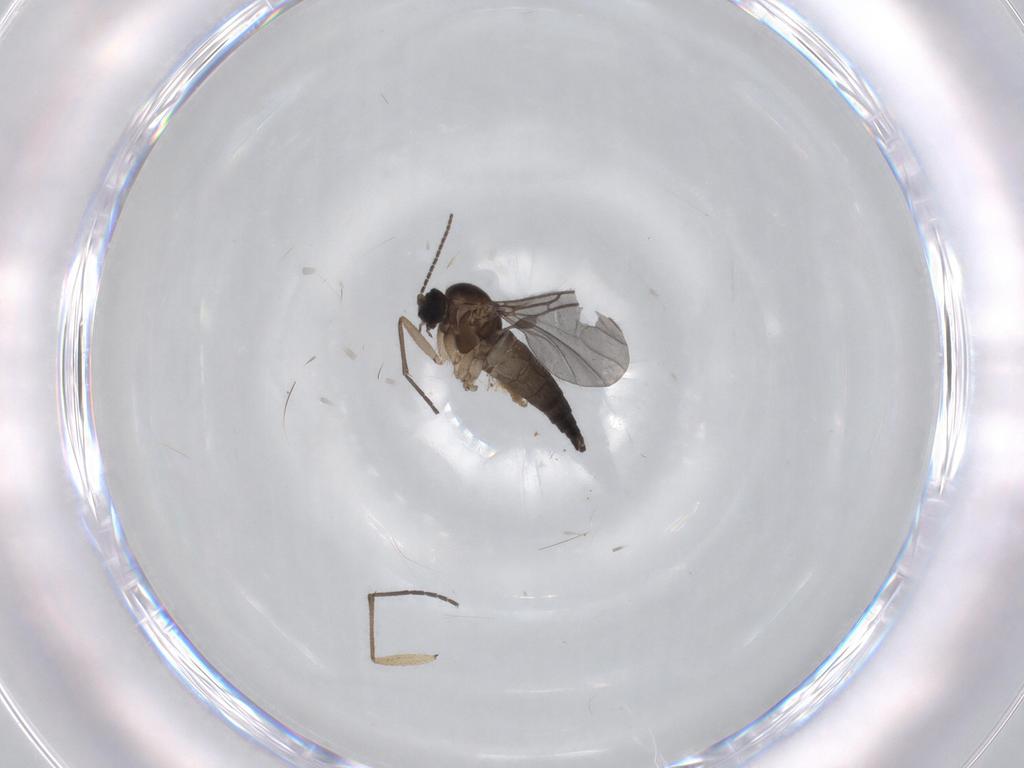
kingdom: Animalia
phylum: Arthropoda
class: Insecta
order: Diptera
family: Sciaridae
